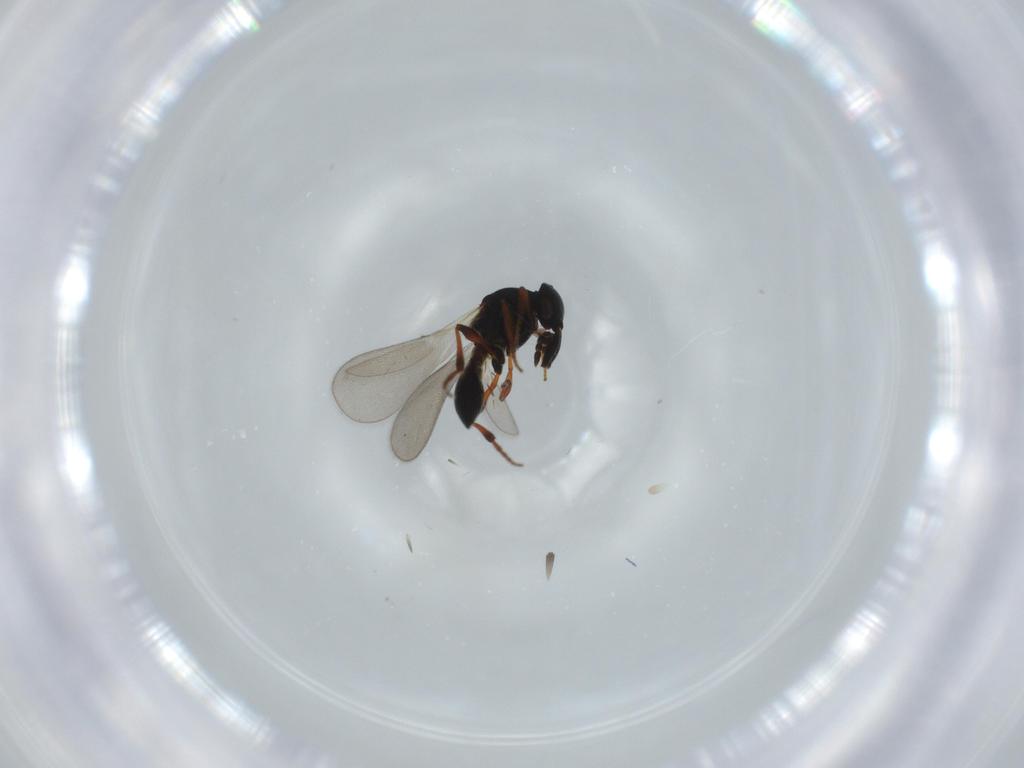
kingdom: Animalia
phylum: Arthropoda
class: Insecta
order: Hymenoptera
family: Platygastridae
